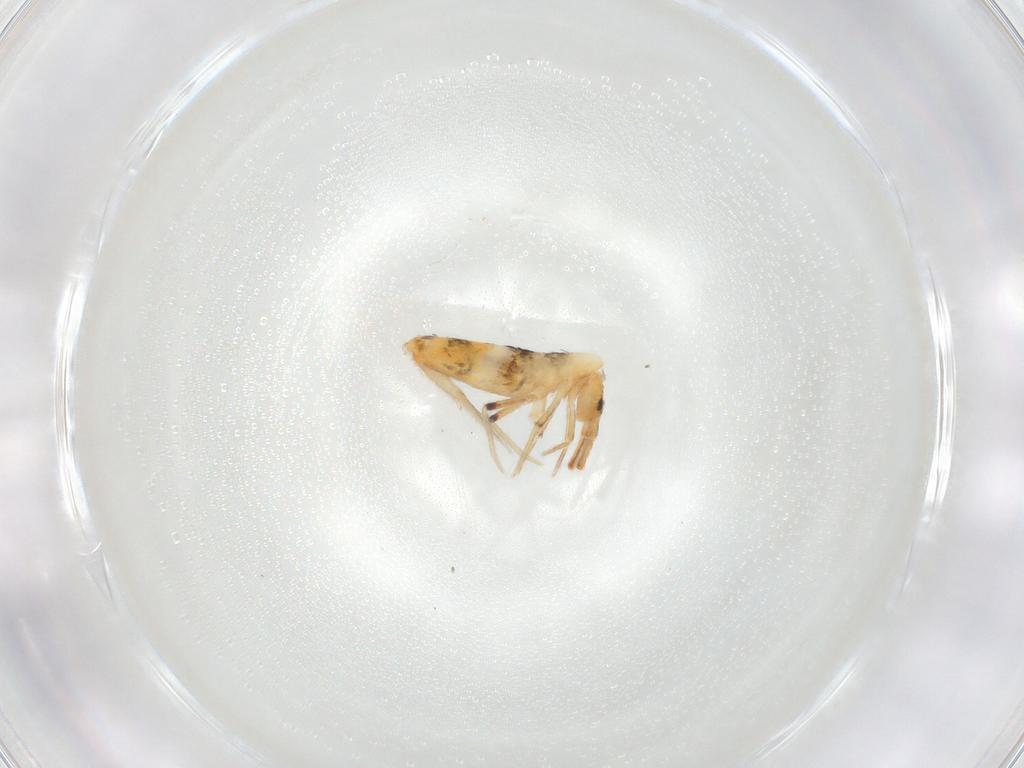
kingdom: Animalia
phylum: Arthropoda
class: Collembola
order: Entomobryomorpha
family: Entomobryidae
